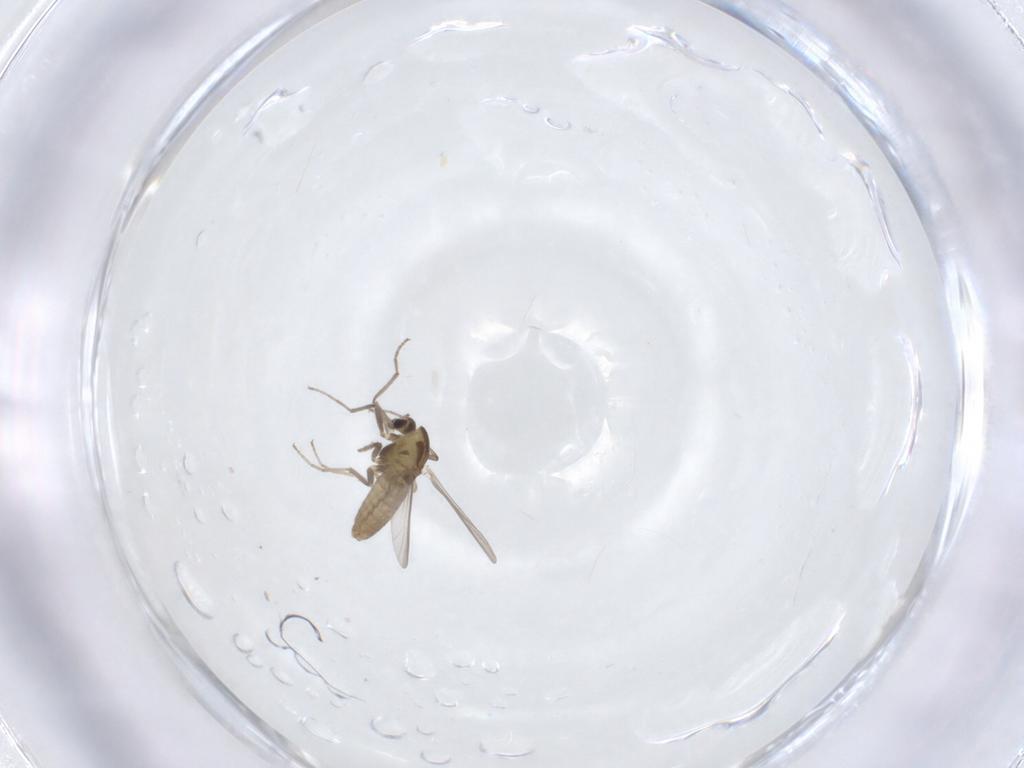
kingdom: Animalia
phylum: Arthropoda
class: Insecta
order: Diptera
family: Chironomidae
